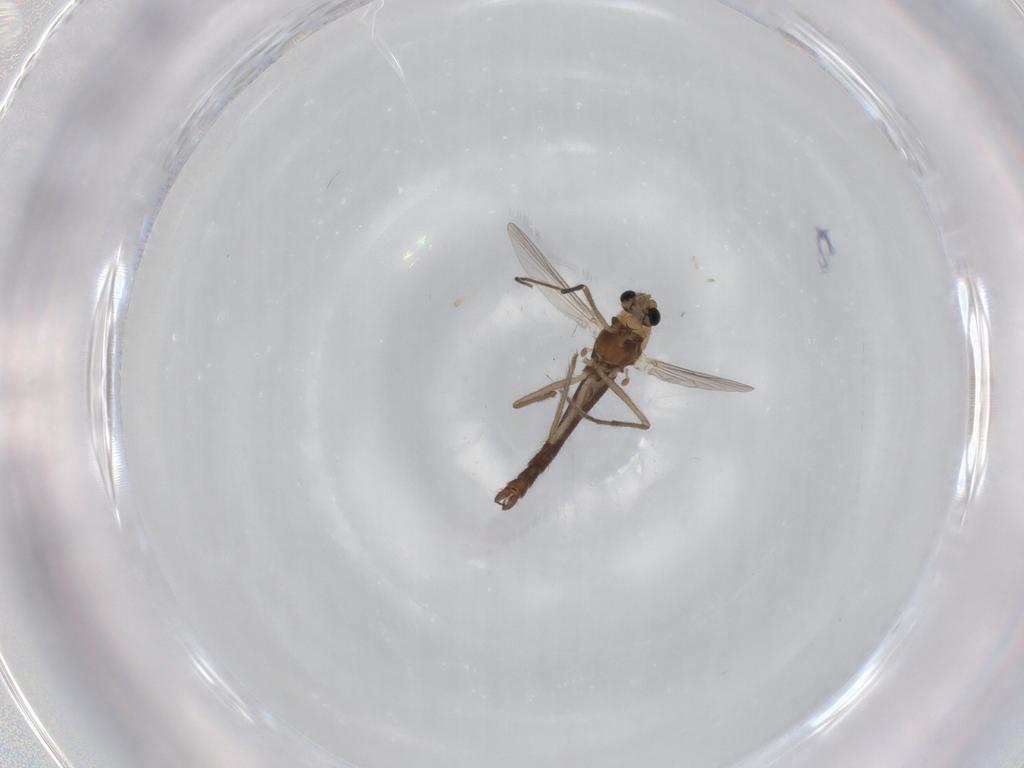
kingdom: Animalia
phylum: Arthropoda
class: Insecta
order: Diptera
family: Chironomidae
